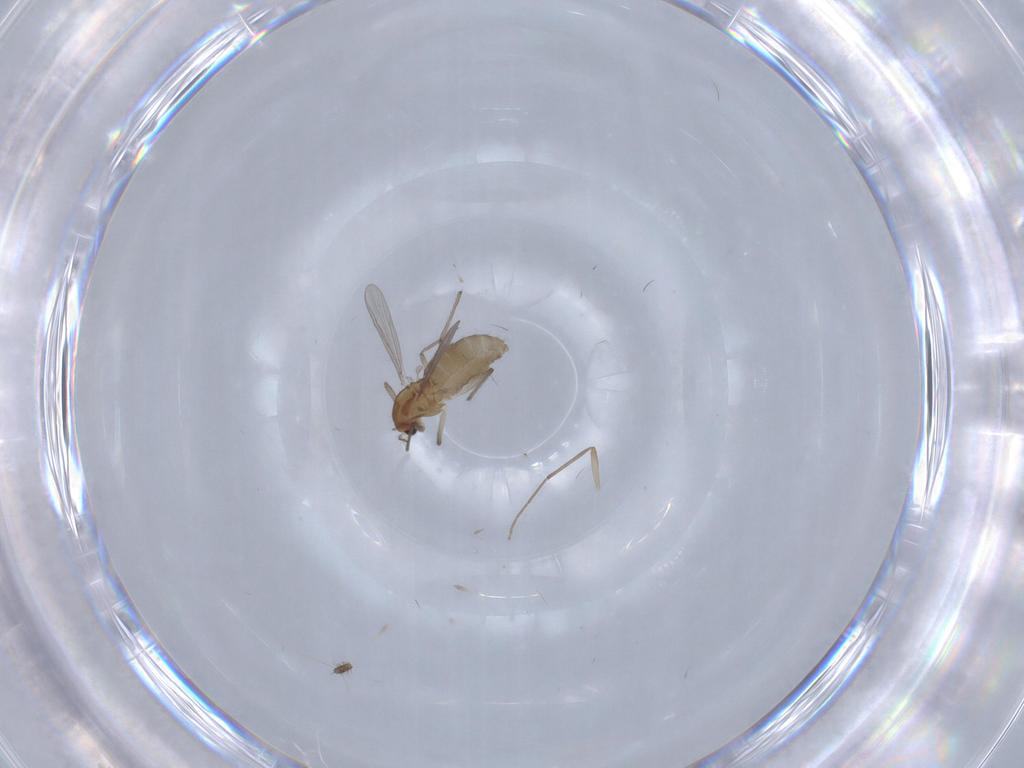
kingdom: Animalia
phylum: Arthropoda
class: Insecta
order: Diptera
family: Chironomidae
